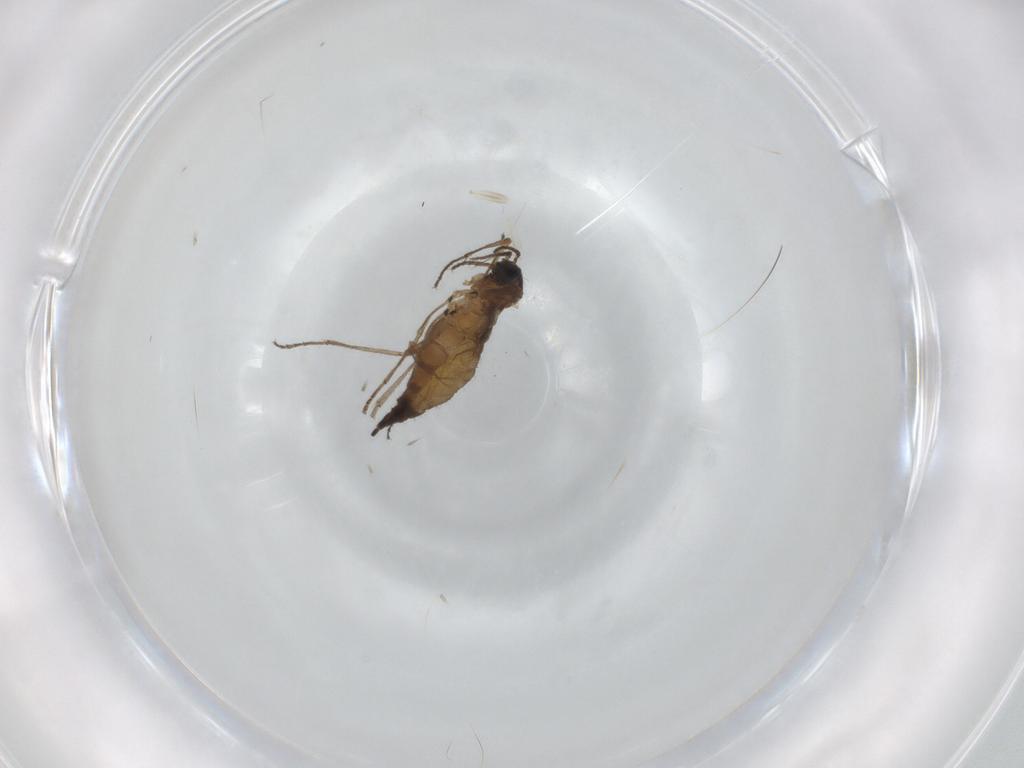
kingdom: Animalia
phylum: Arthropoda
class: Insecta
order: Diptera
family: Sciaridae
